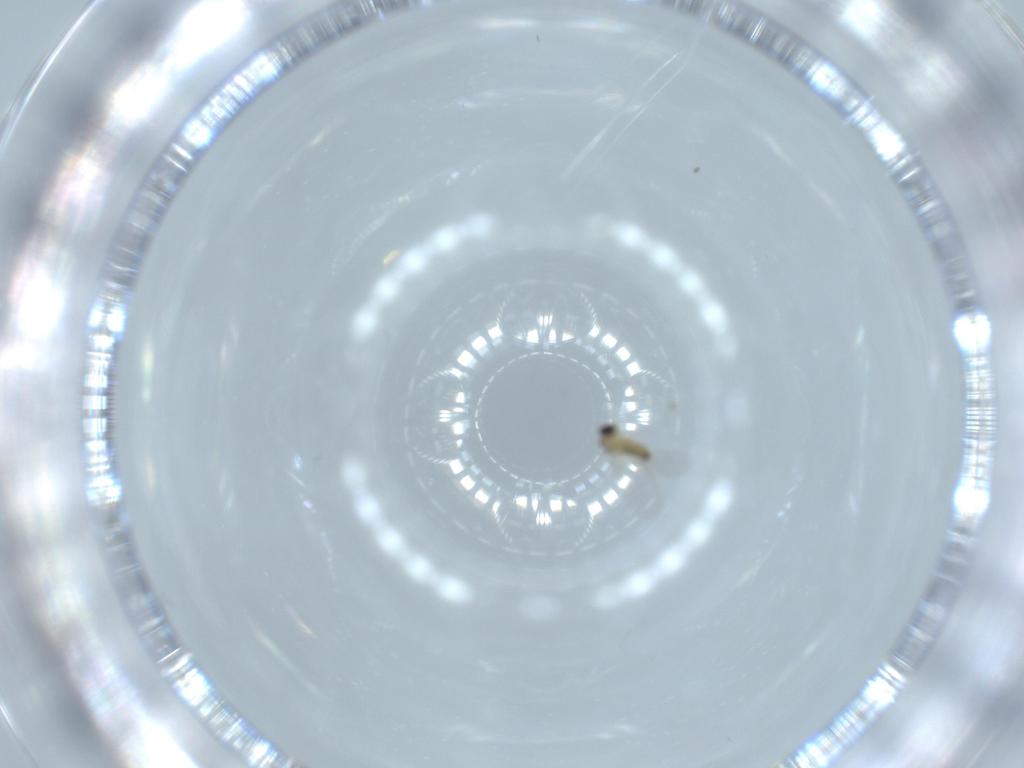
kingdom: Animalia
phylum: Arthropoda
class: Insecta
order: Diptera
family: Cecidomyiidae
